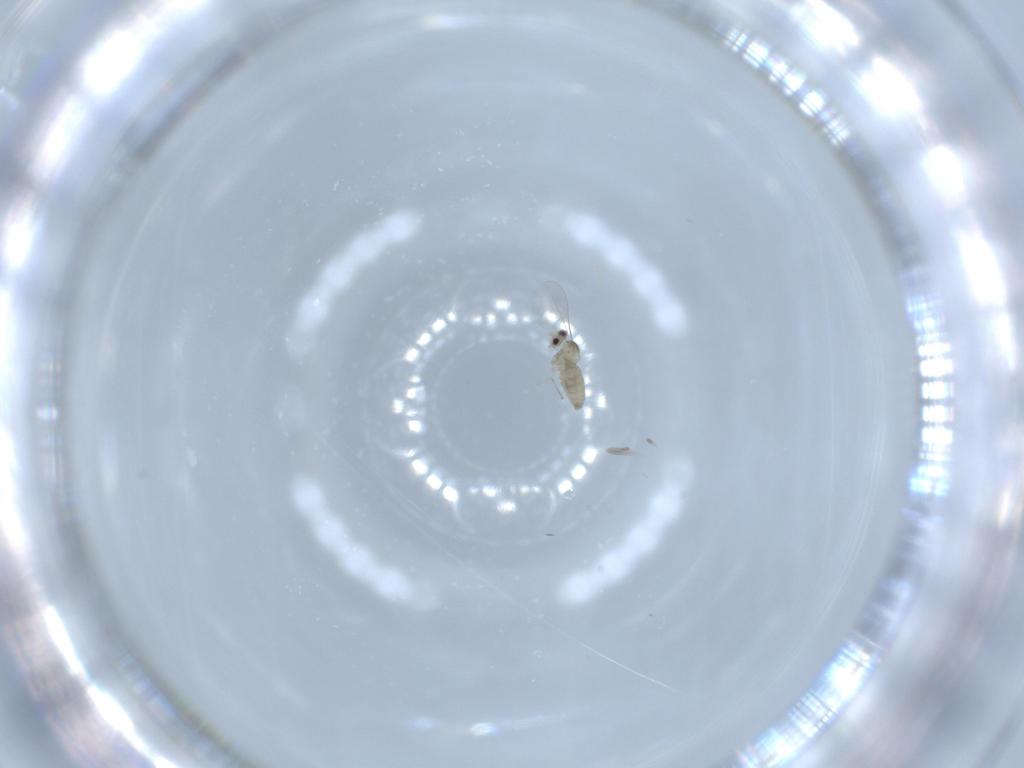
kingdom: Animalia
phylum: Arthropoda
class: Insecta
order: Diptera
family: Cecidomyiidae
